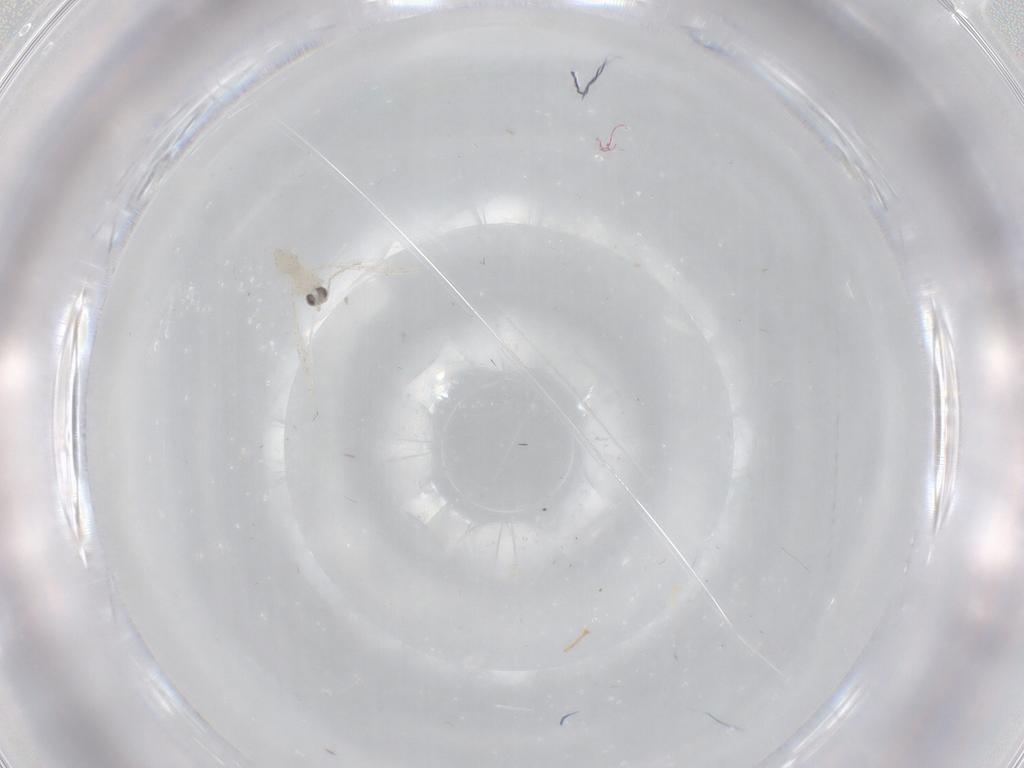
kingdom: Animalia
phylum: Arthropoda
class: Insecta
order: Diptera
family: Cecidomyiidae
